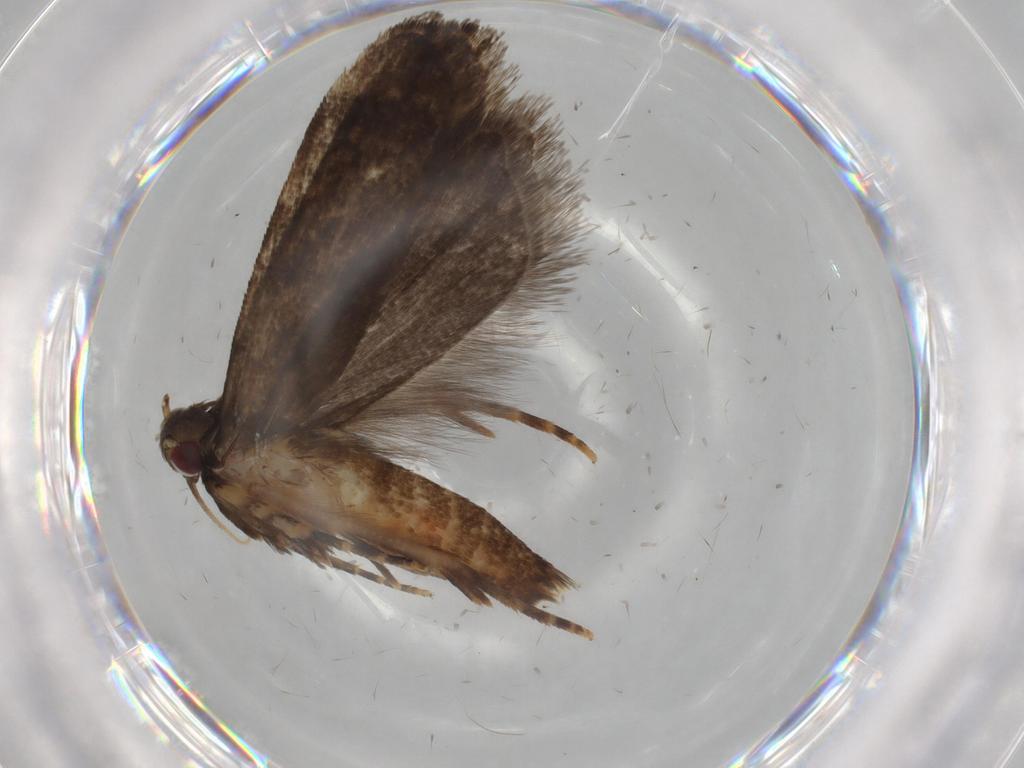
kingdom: Animalia
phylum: Arthropoda
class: Insecta
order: Lepidoptera
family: Gelechiidae
